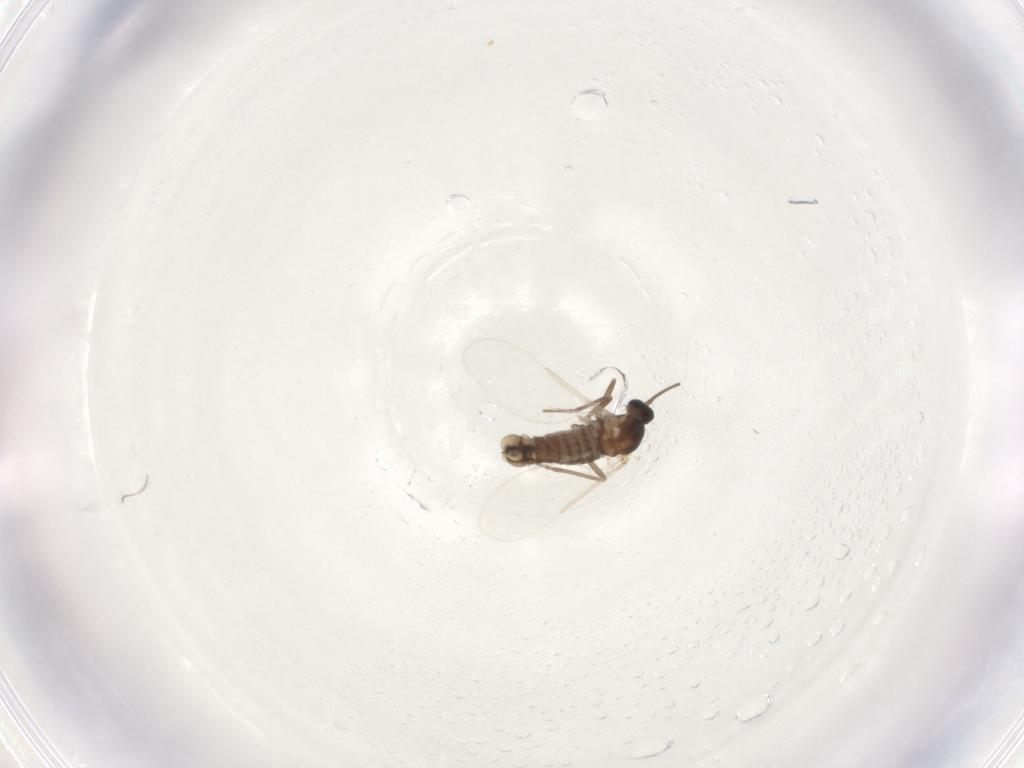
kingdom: Animalia
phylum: Arthropoda
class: Insecta
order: Diptera
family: Cecidomyiidae
